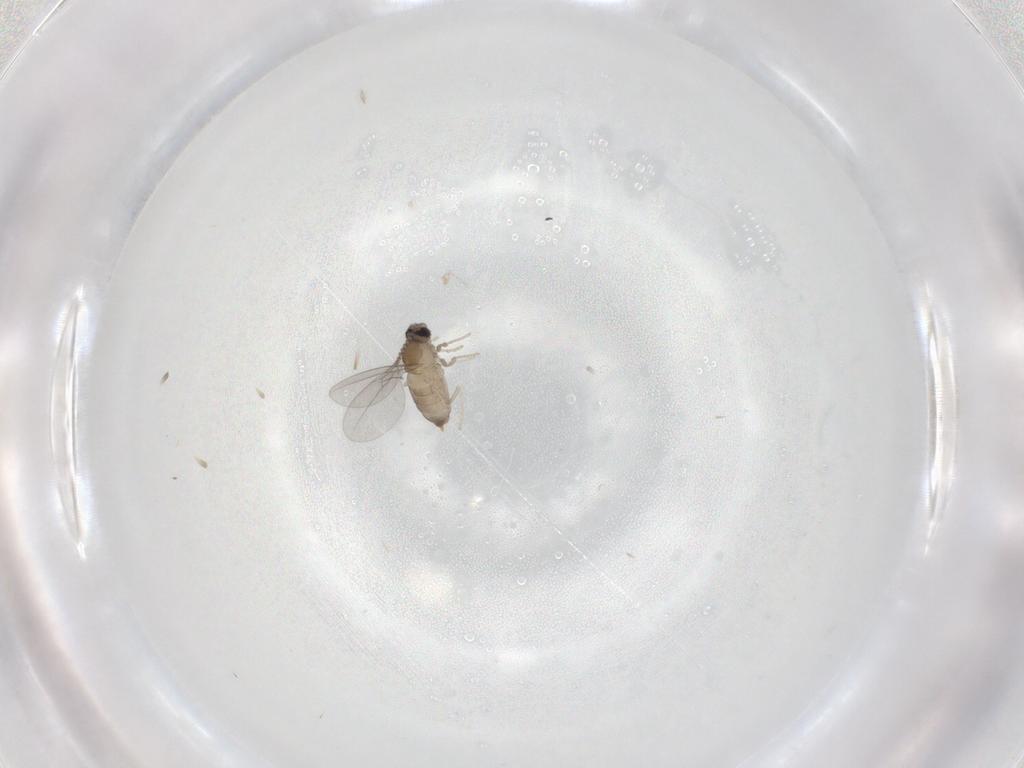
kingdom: Animalia
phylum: Arthropoda
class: Insecta
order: Diptera
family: Cecidomyiidae
